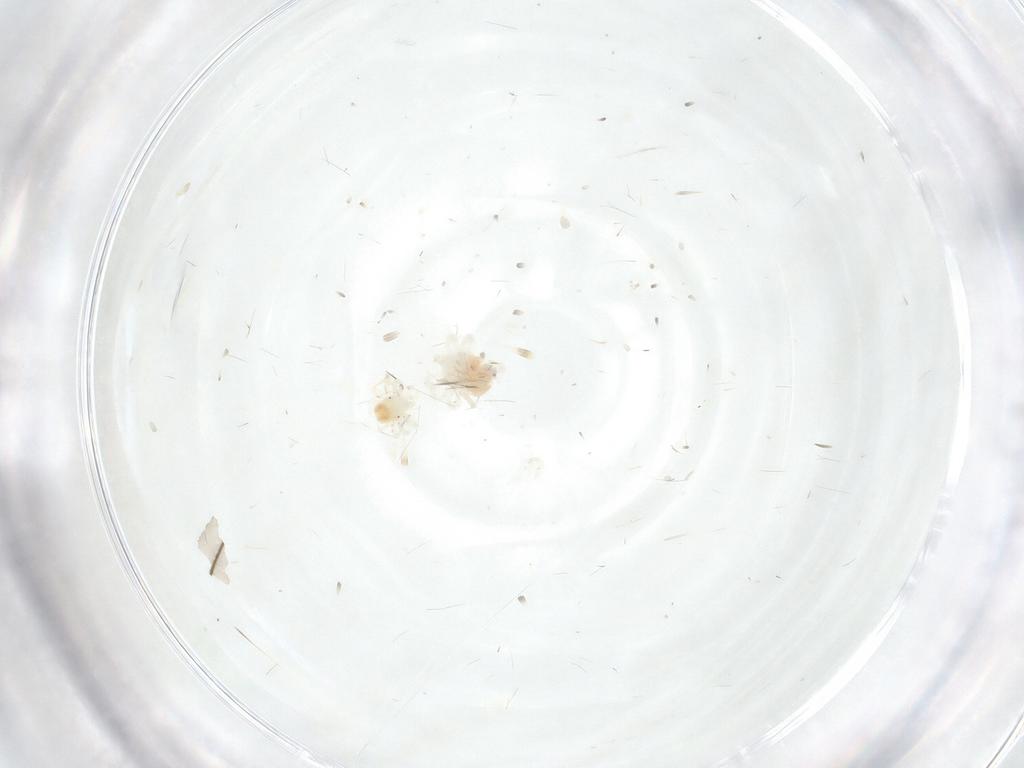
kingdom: Animalia
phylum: Arthropoda
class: Arachnida
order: Trombidiformes
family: Anystidae
